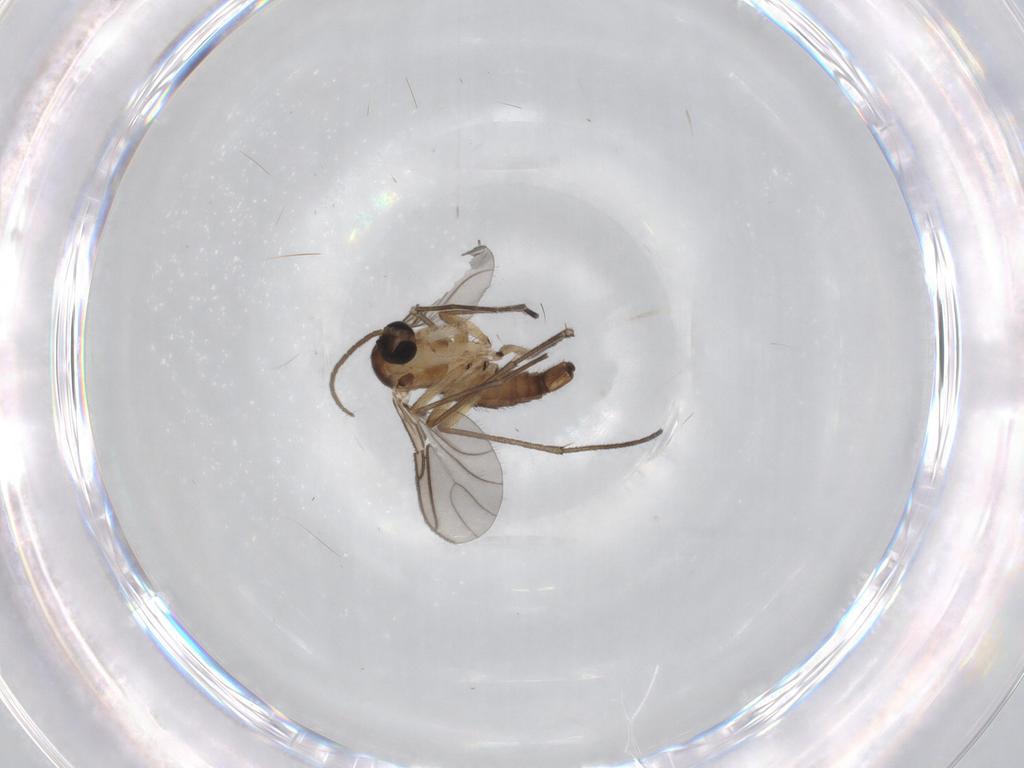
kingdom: Animalia
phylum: Arthropoda
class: Insecta
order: Diptera
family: Sciaridae
